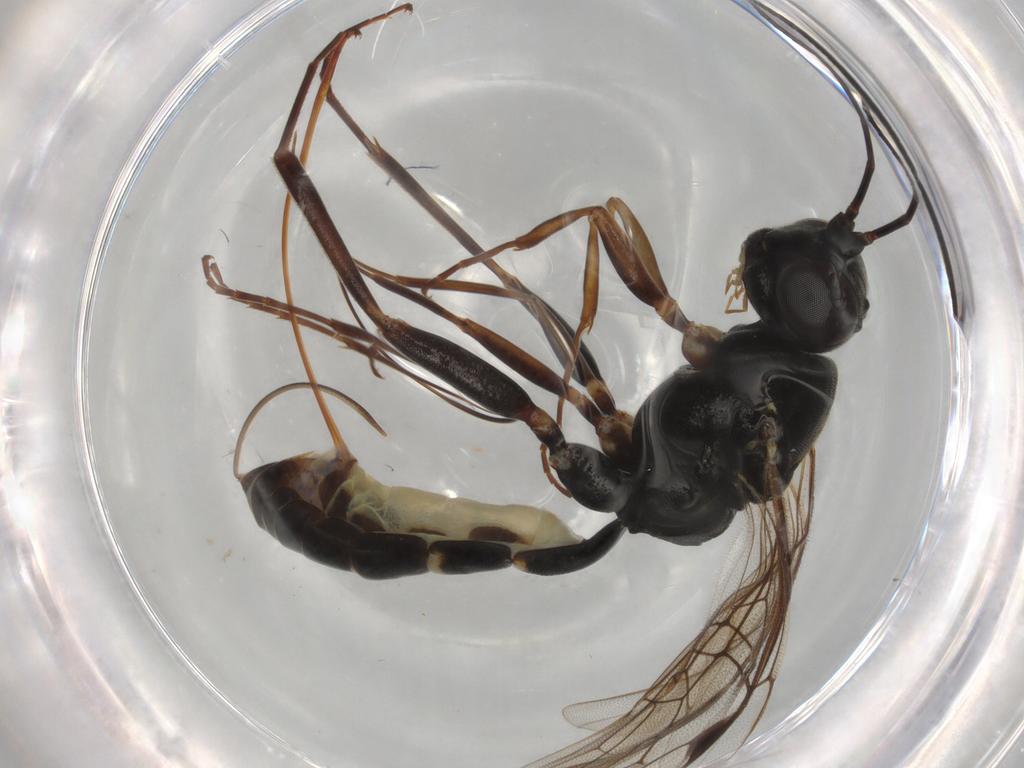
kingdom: Animalia
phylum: Arthropoda
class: Insecta
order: Hymenoptera
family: Ichneumonidae
